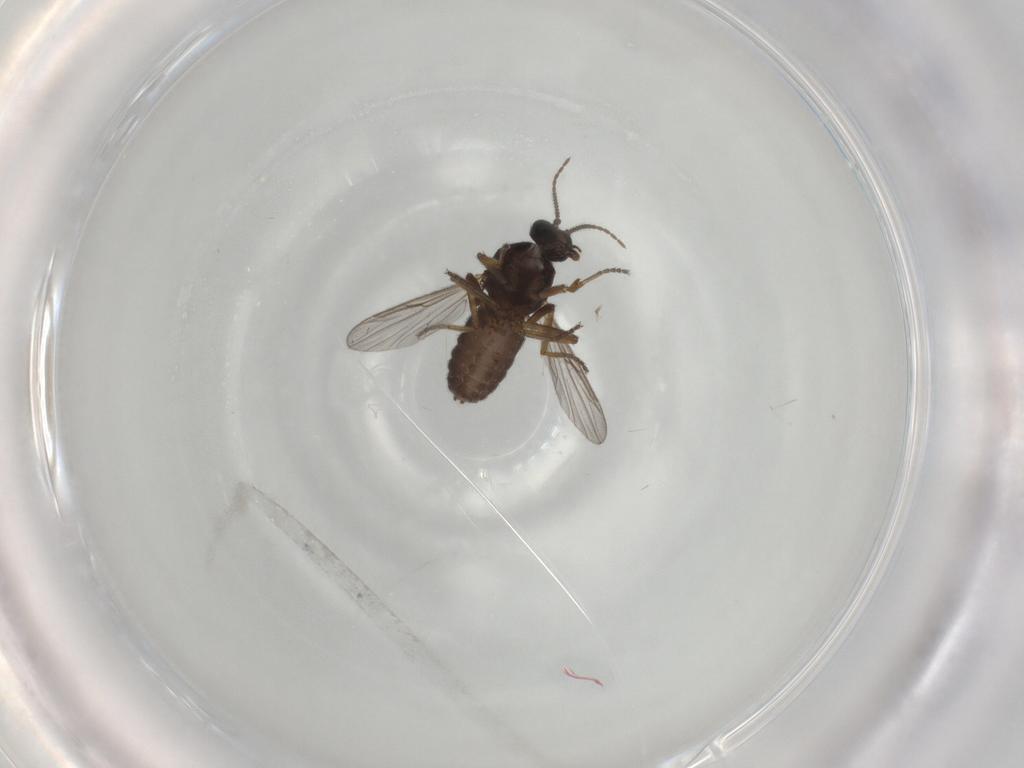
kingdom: Animalia
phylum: Arthropoda
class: Insecta
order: Diptera
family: Ceratopogonidae
